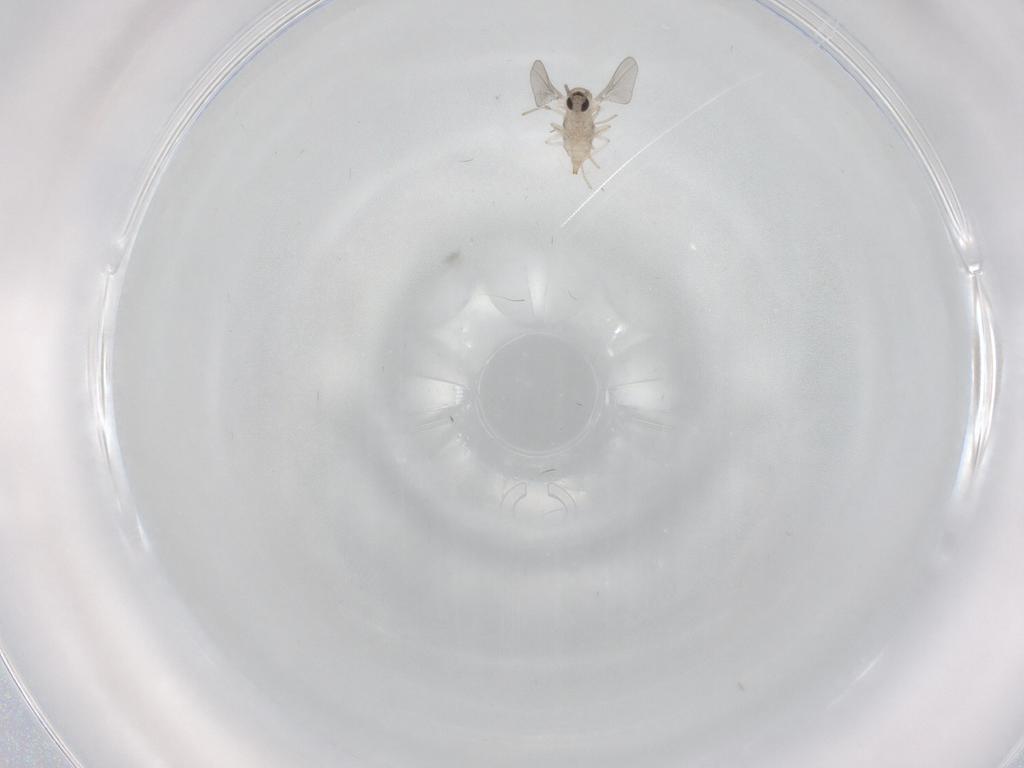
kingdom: Animalia
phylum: Arthropoda
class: Insecta
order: Diptera
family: Cecidomyiidae
